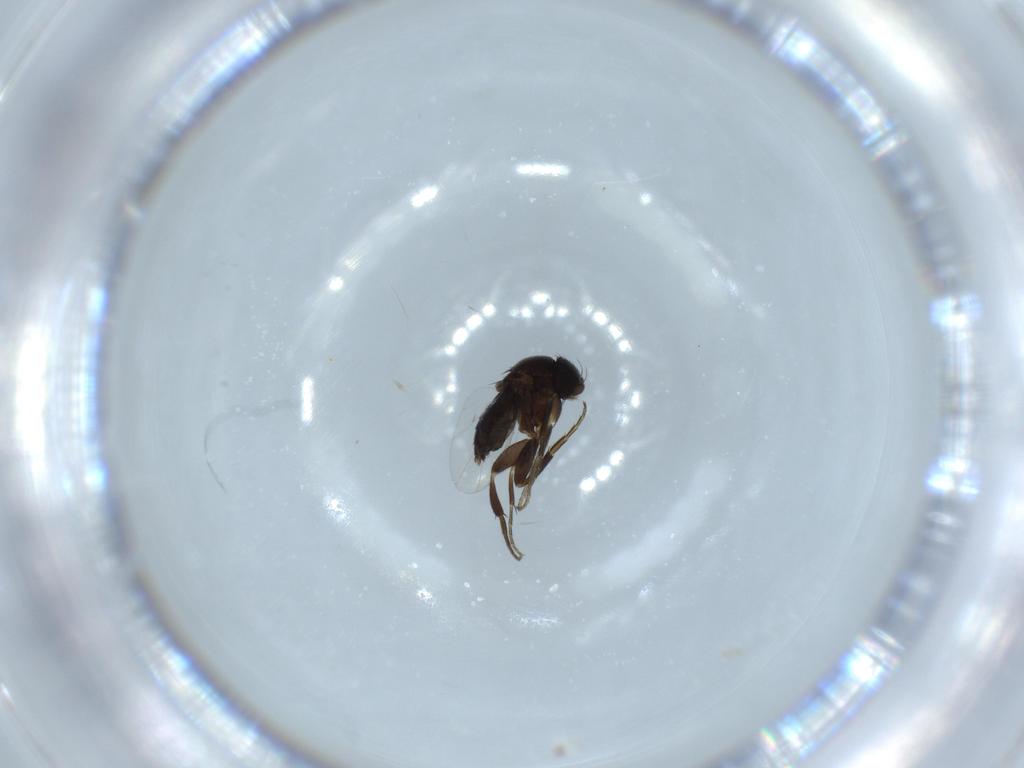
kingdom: Animalia
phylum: Arthropoda
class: Insecta
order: Diptera
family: Phoridae
